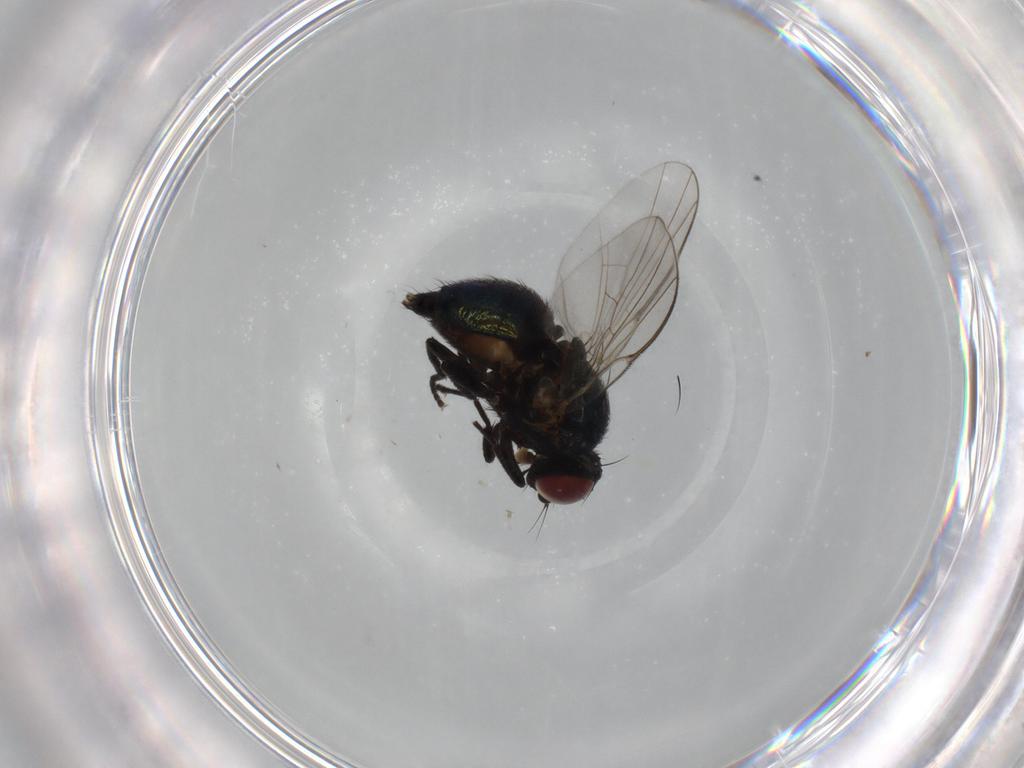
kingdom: Animalia
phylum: Arthropoda
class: Insecta
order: Diptera
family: Agromyzidae
